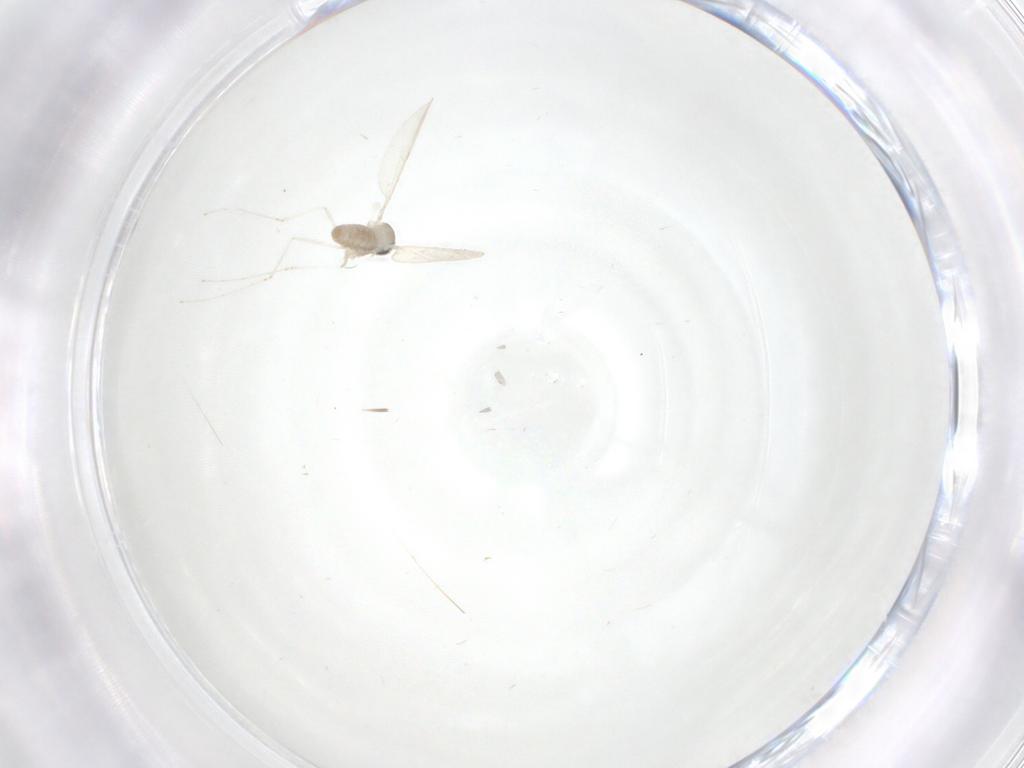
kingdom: Animalia
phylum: Arthropoda
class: Insecta
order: Diptera
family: Cecidomyiidae
